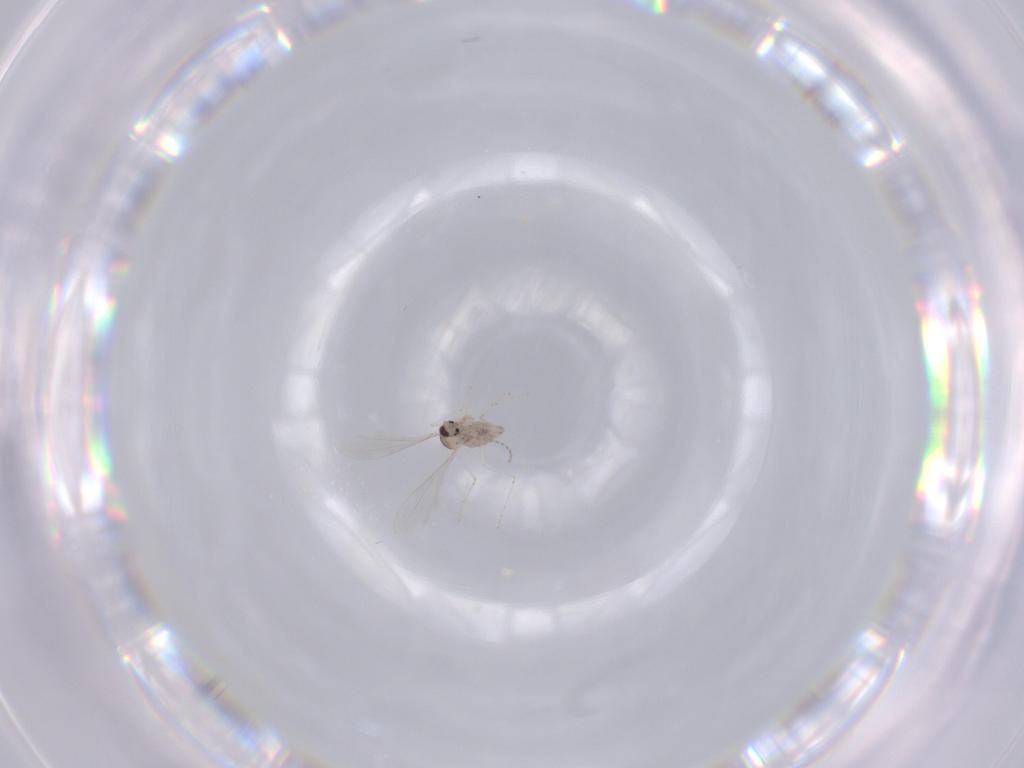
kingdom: Animalia
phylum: Arthropoda
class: Insecta
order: Diptera
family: Cecidomyiidae
